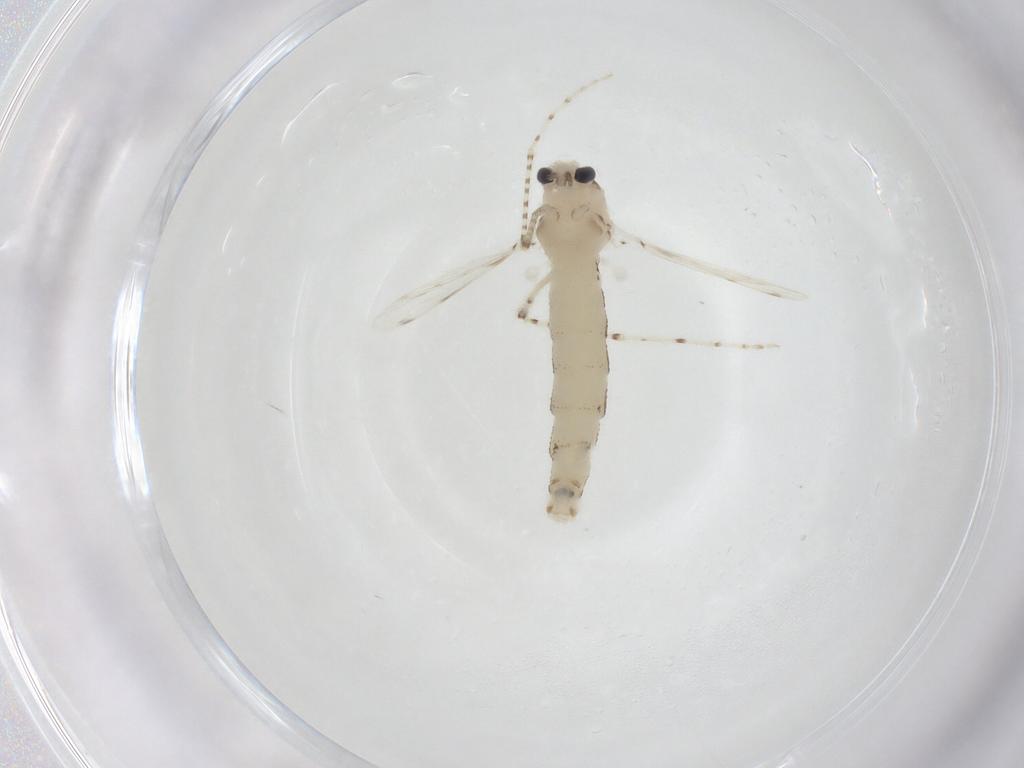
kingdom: Animalia
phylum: Arthropoda
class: Insecta
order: Diptera
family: Chaoboridae
